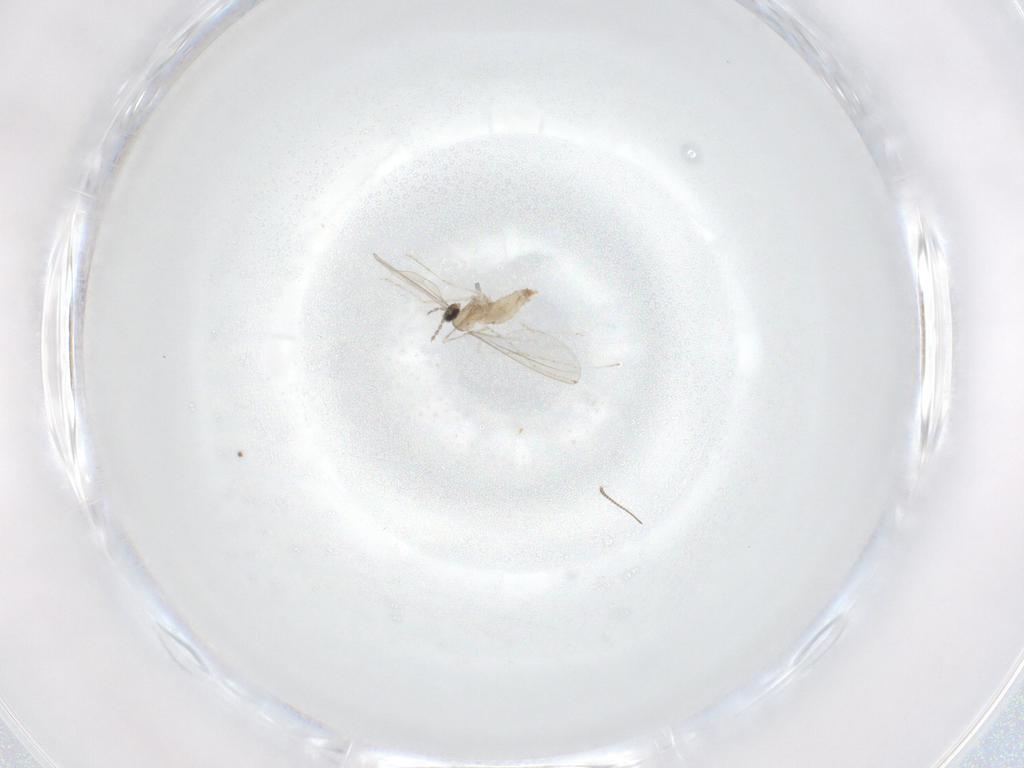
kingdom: Animalia
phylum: Arthropoda
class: Insecta
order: Diptera
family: Cecidomyiidae
